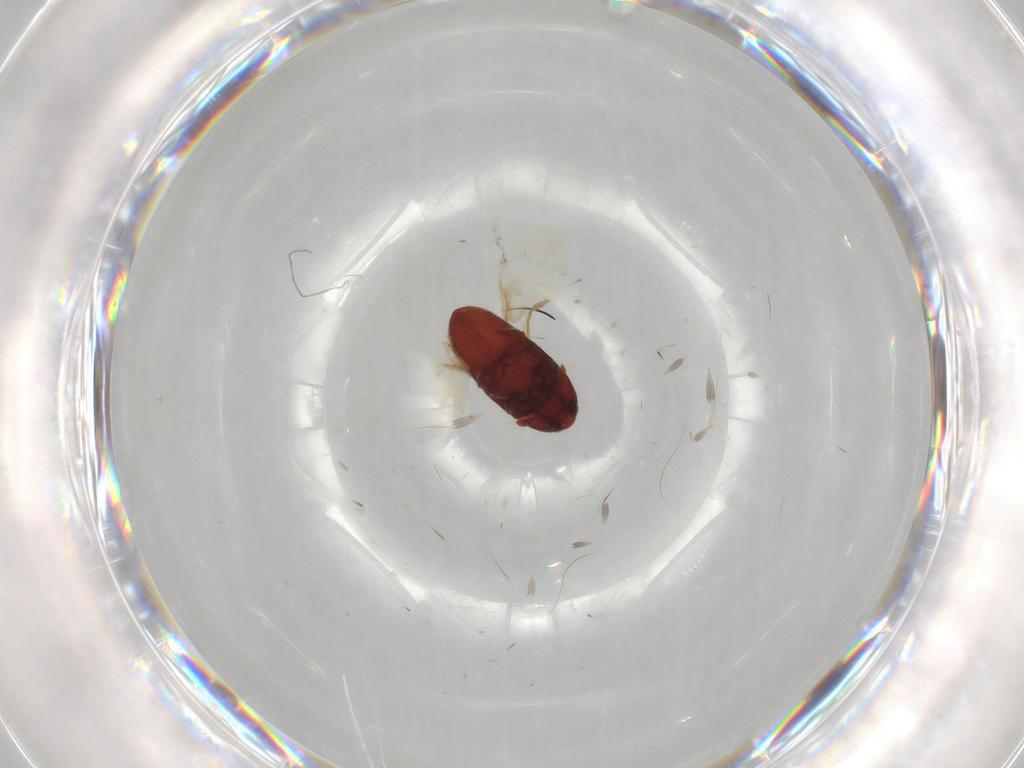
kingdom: Animalia
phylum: Arthropoda
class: Insecta
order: Coleoptera
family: Throscidae
